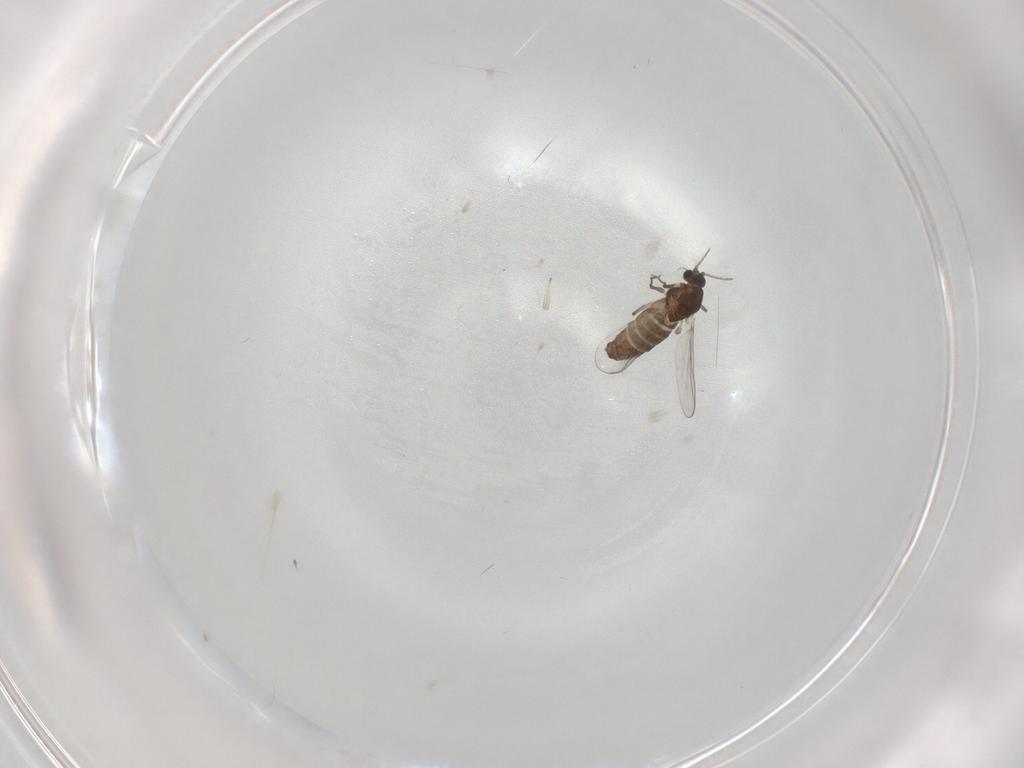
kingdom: Animalia
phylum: Arthropoda
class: Insecta
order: Diptera
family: Chironomidae
